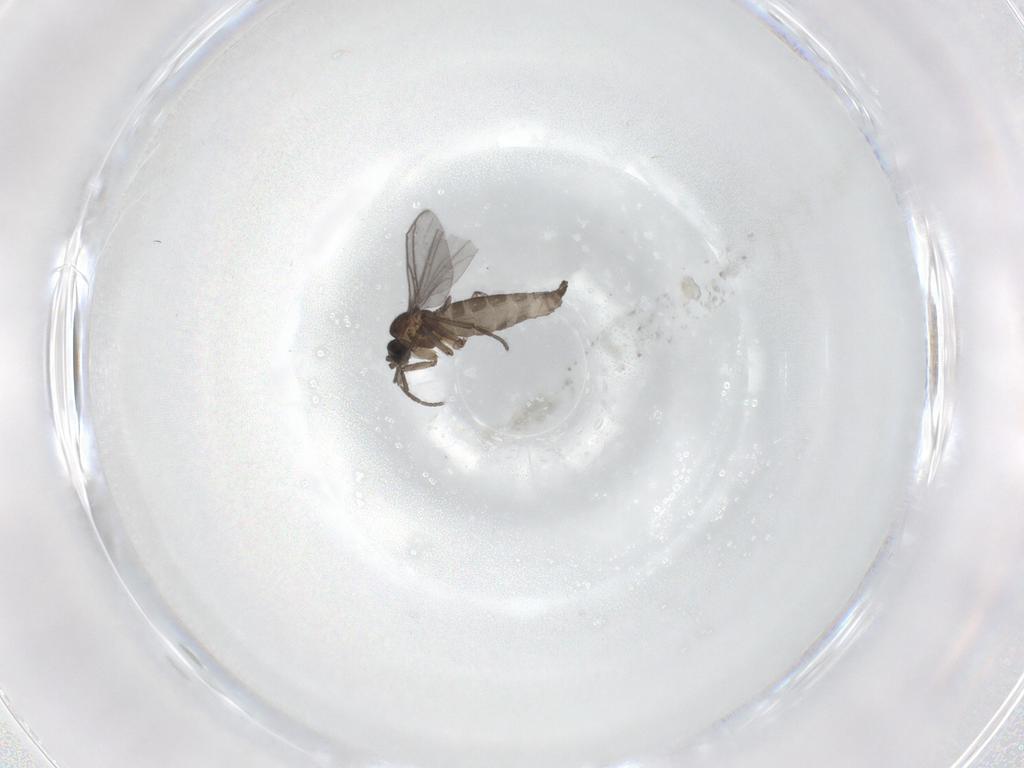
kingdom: Animalia
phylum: Arthropoda
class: Insecta
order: Diptera
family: Sciaridae
